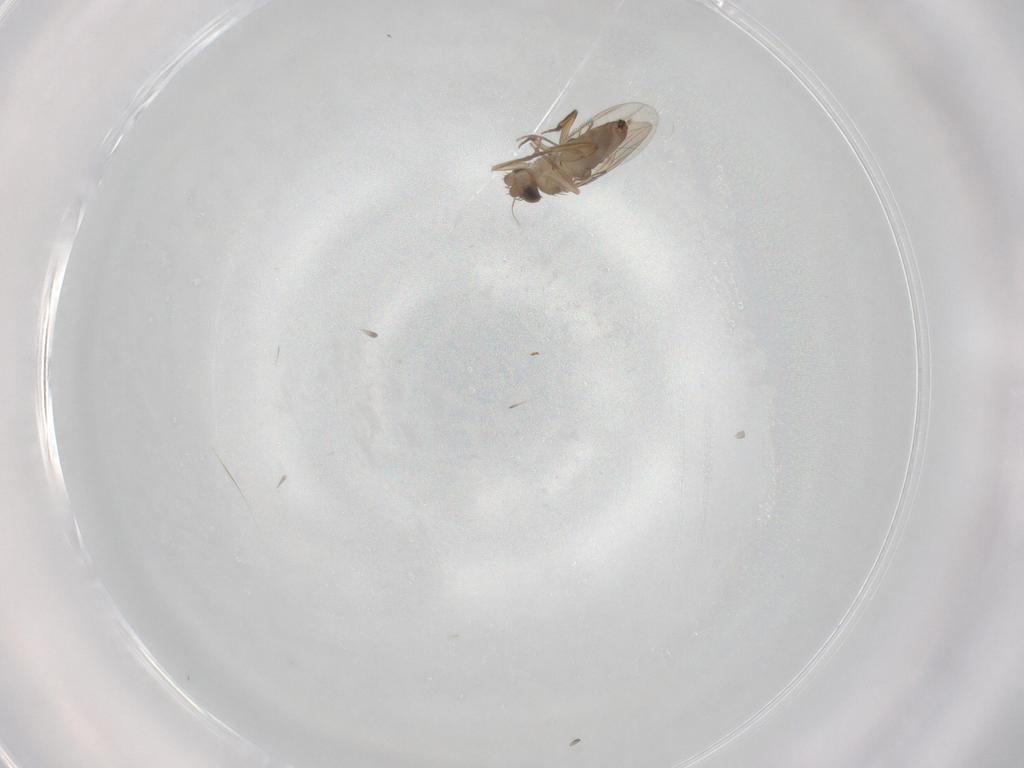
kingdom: Animalia
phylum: Arthropoda
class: Insecta
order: Diptera
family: Phoridae
